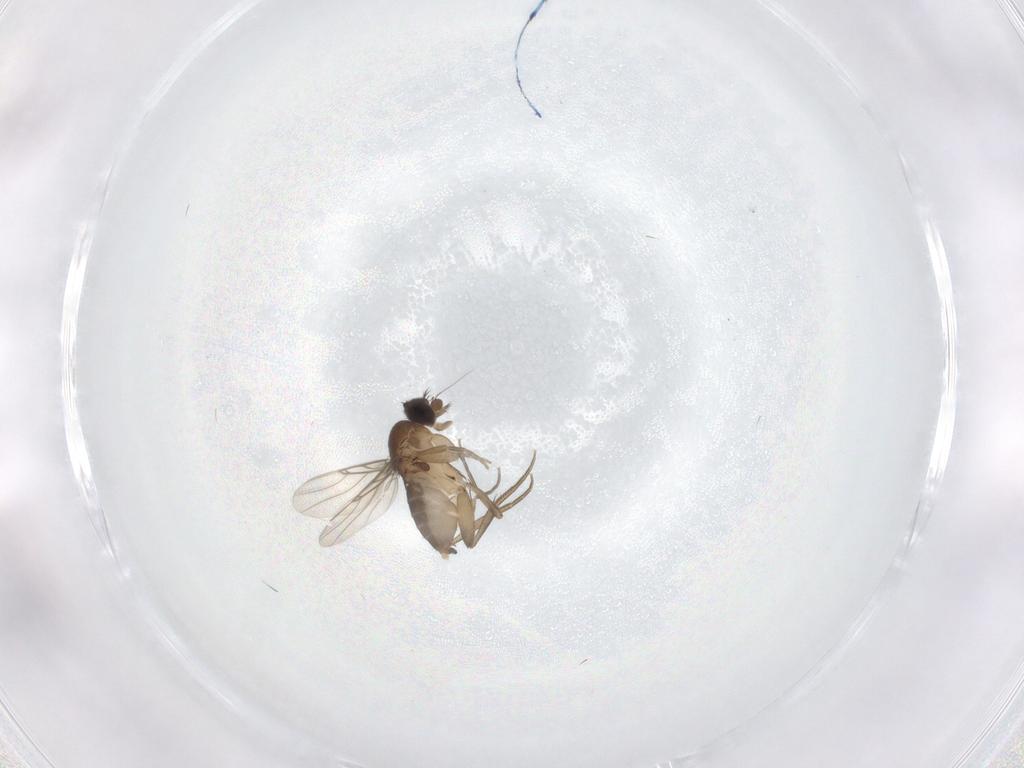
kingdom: Animalia
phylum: Arthropoda
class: Insecta
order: Diptera
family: Phoridae
